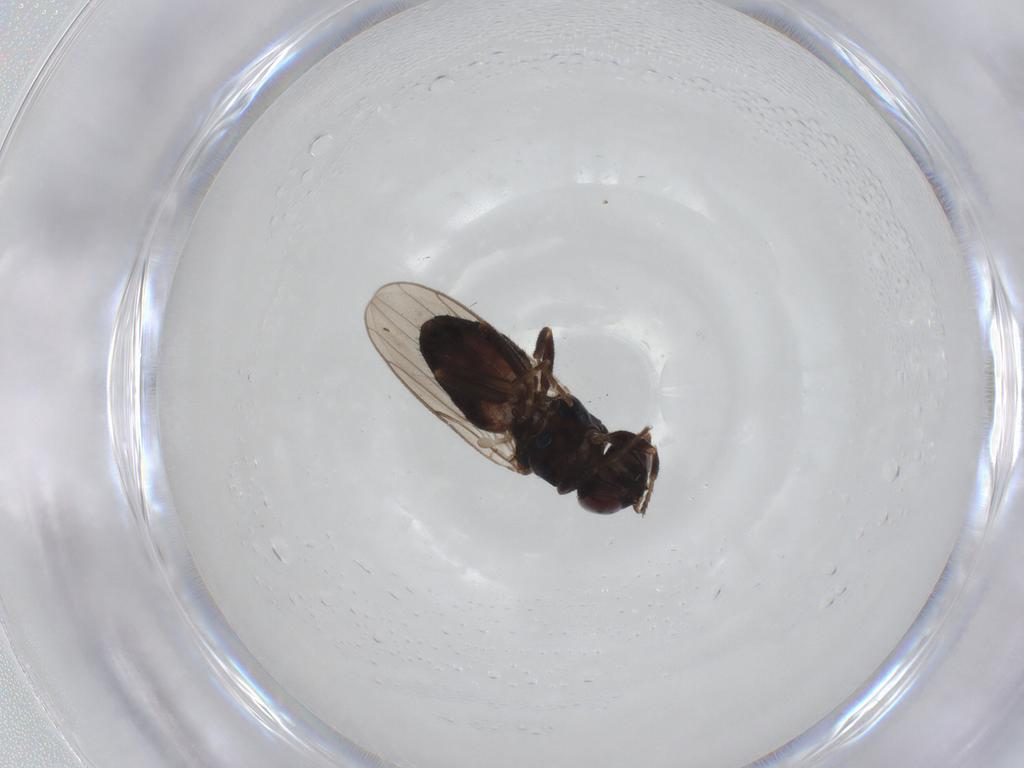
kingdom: Animalia
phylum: Arthropoda
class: Insecta
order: Diptera
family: Chloropidae
